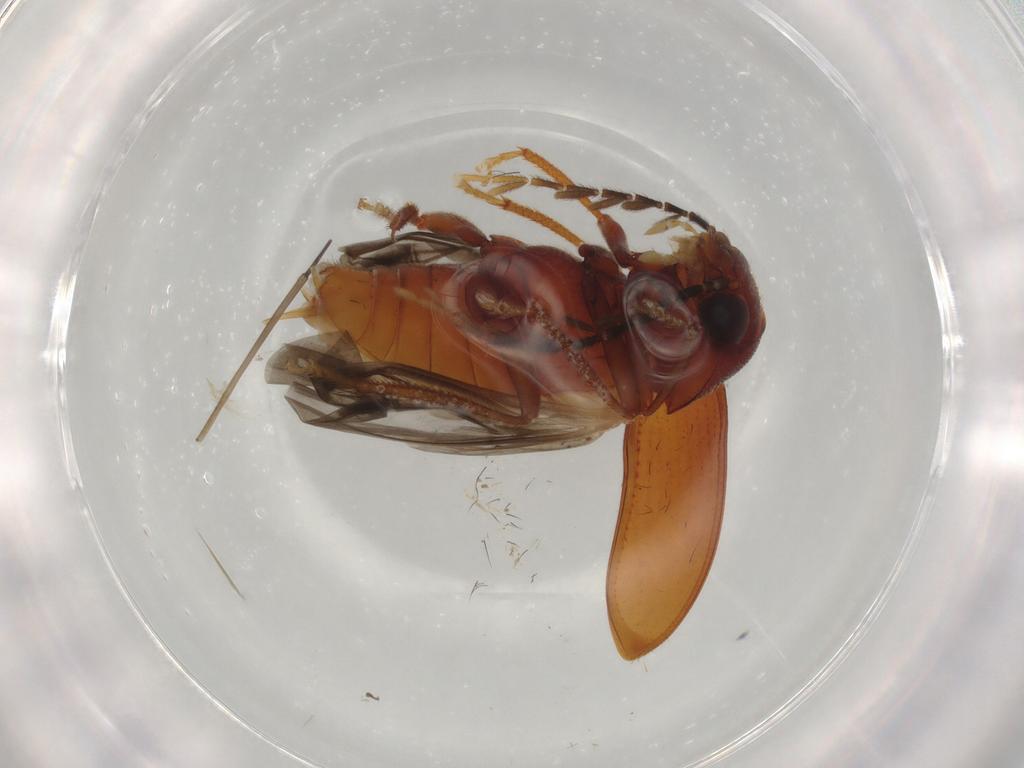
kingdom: Animalia
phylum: Arthropoda
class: Insecta
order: Coleoptera
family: Ptilodactylidae
